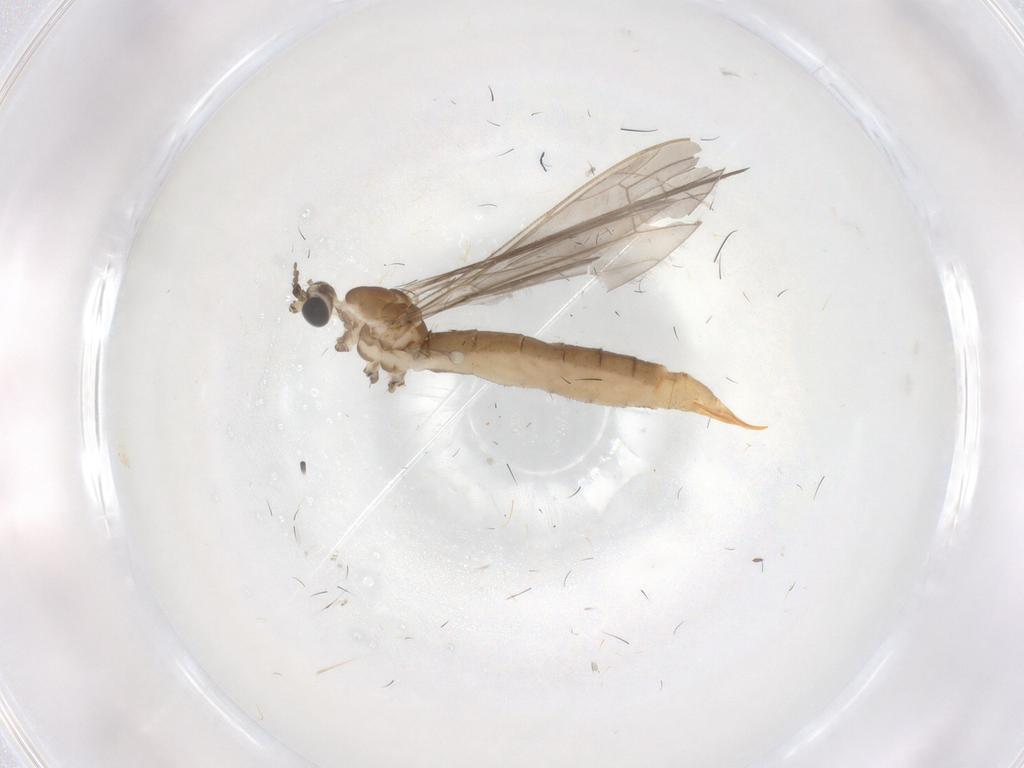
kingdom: Animalia
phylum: Arthropoda
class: Insecta
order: Diptera
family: Limoniidae
